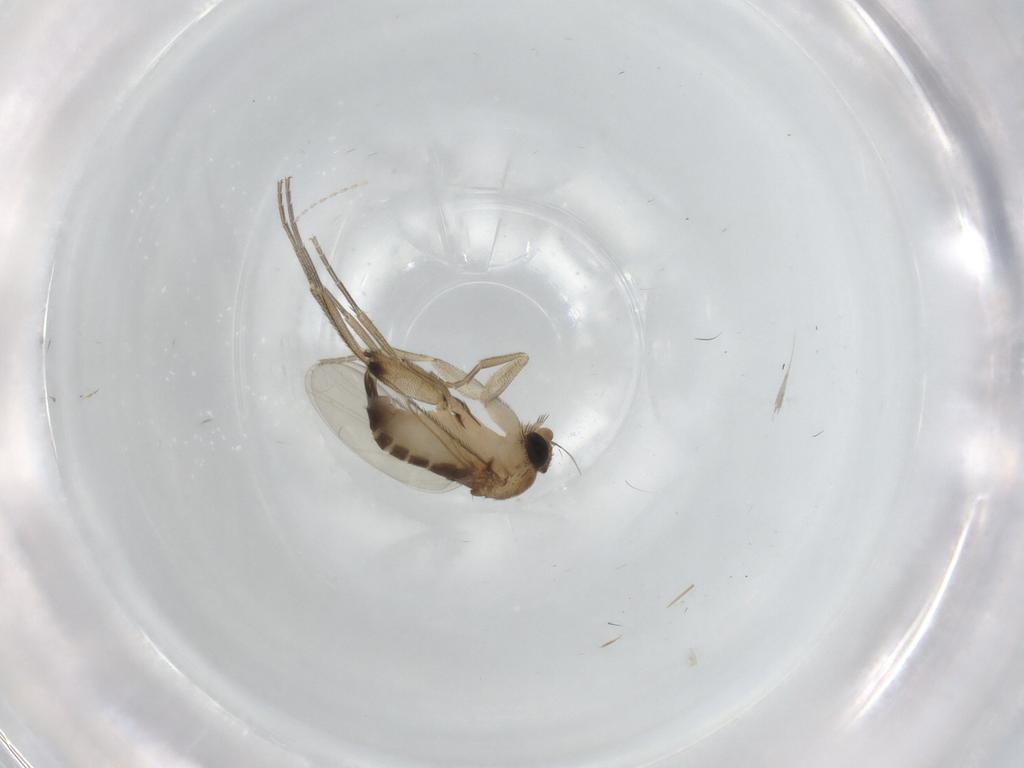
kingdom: Animalia
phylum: Arthropoda
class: Insecta
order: Diptera
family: Phoridae
